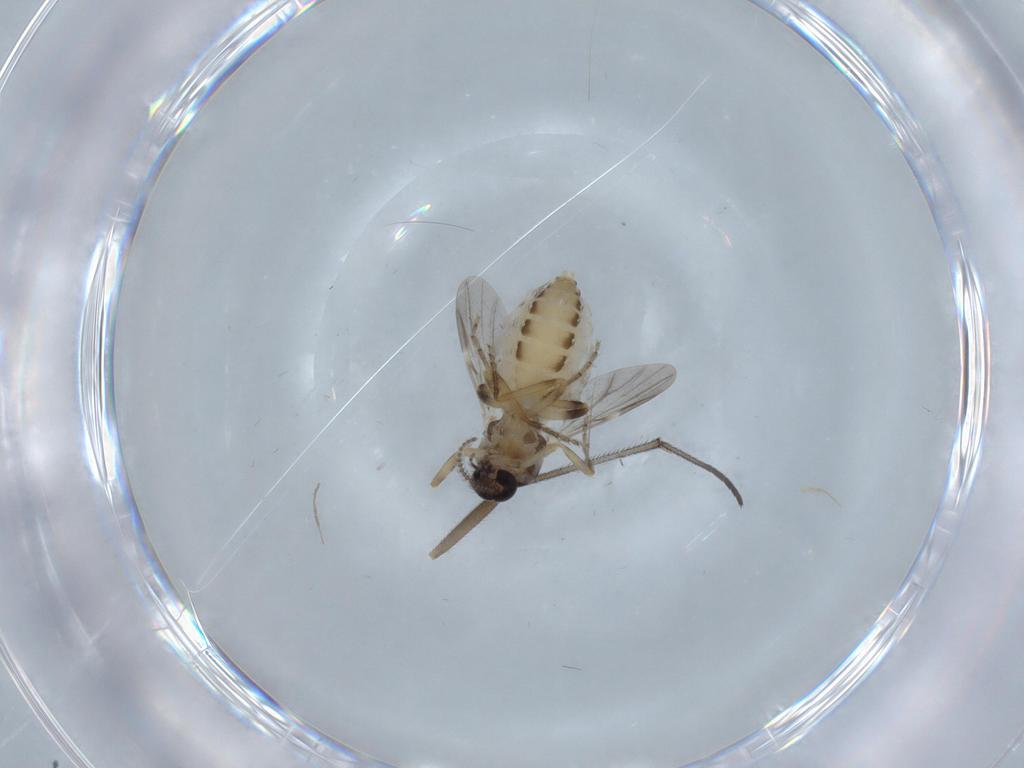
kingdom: Animalia
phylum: Arthropoda
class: Insecta
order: Diptera
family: Ceratopogonidae
